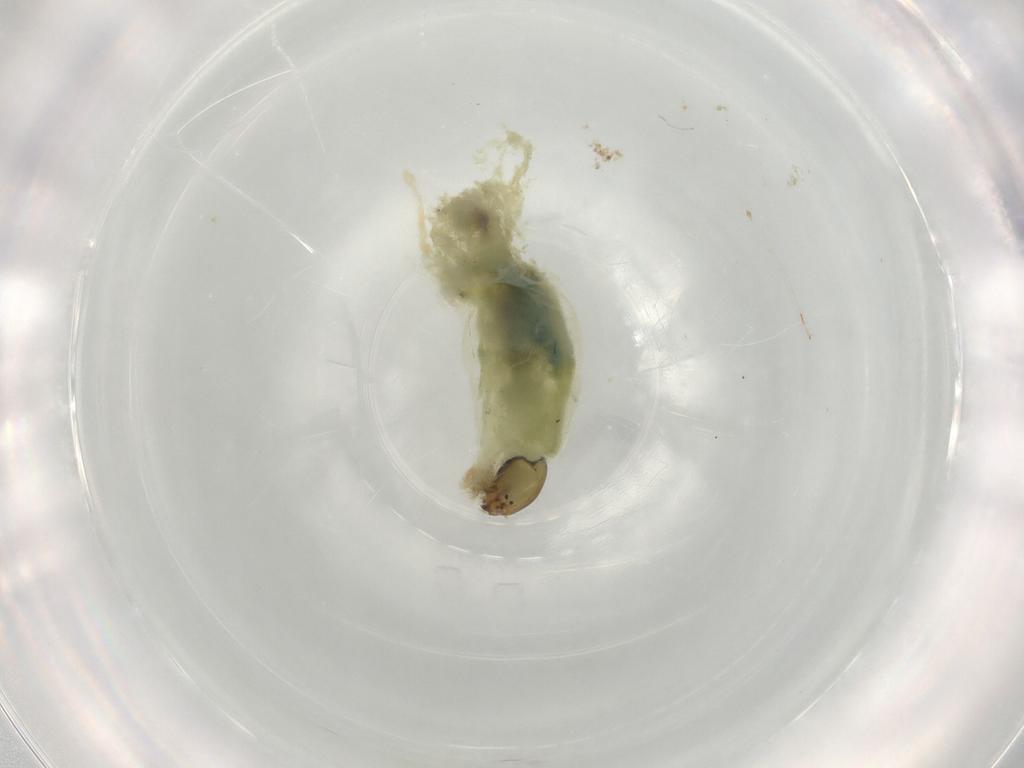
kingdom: Animalia
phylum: Arthropoda
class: Insecta
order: Diptera
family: Chironomidae
